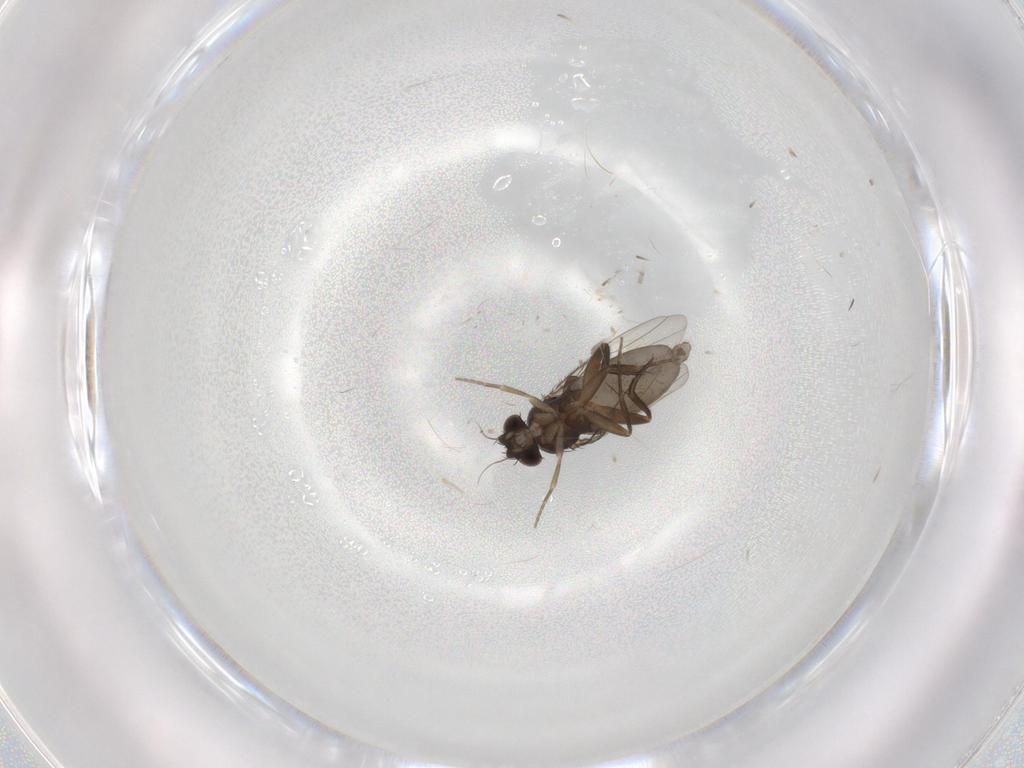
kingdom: Animalia
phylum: Arthropoda
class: Insecta
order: Diptera
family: Phoridae
